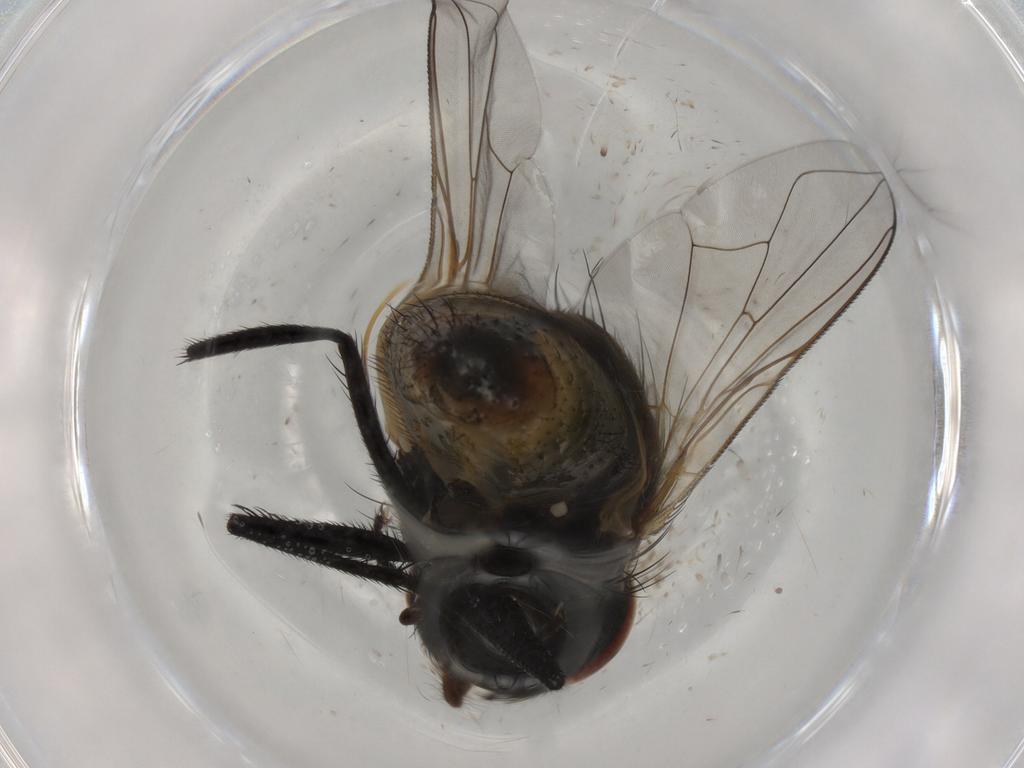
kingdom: Animalia
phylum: Arthropoda
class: Insecta
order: Diptera
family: Muscidae
